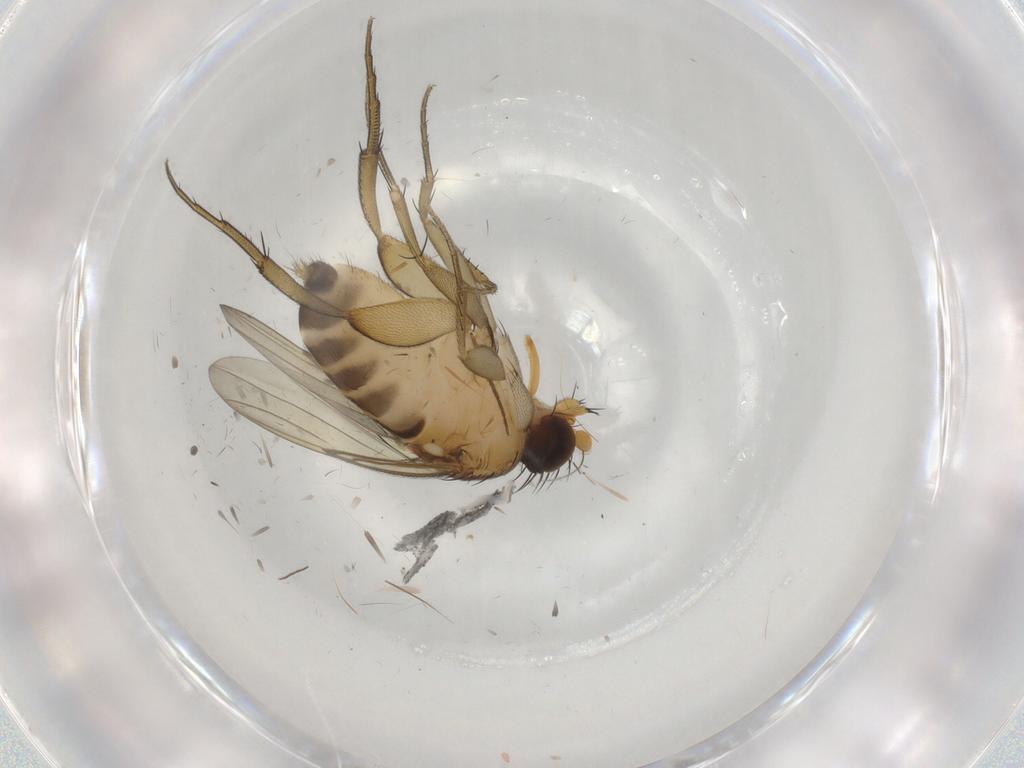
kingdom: Animalia
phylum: Arthropoda
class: Insecta
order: Diptera
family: Phoridae
